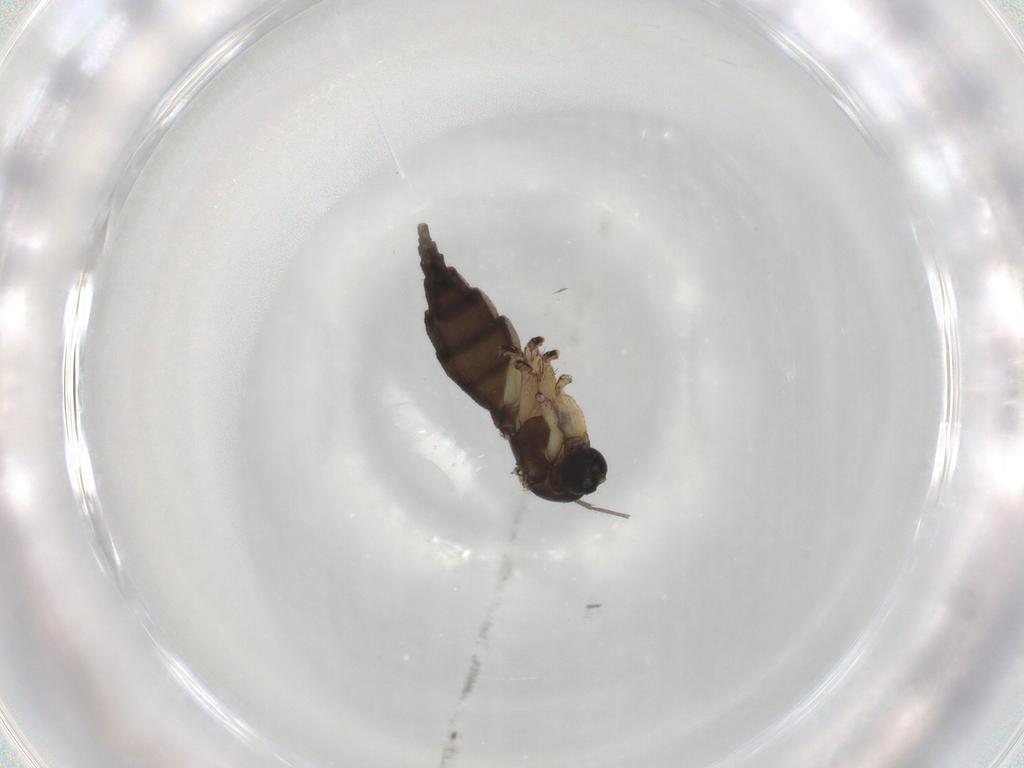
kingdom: Animalia
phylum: Arthropoda
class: Insecta
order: Diptera
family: Sciaridae
